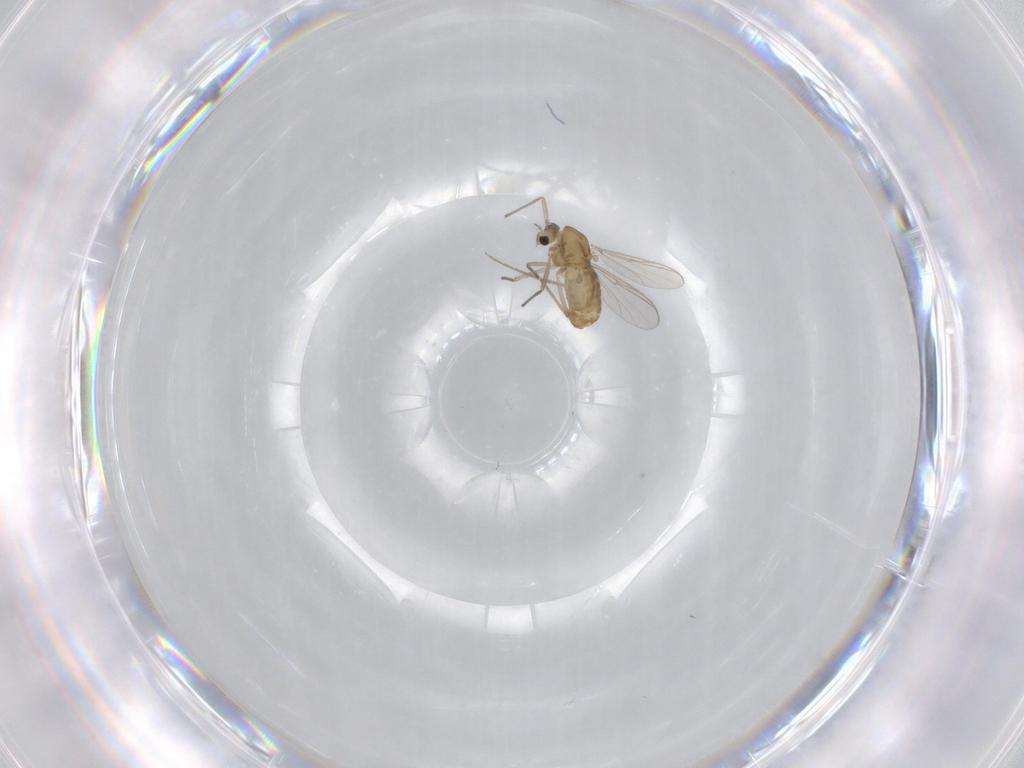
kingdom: Animalia
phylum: Arthropoda
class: Insecta
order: Diptera
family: Chironomidae
